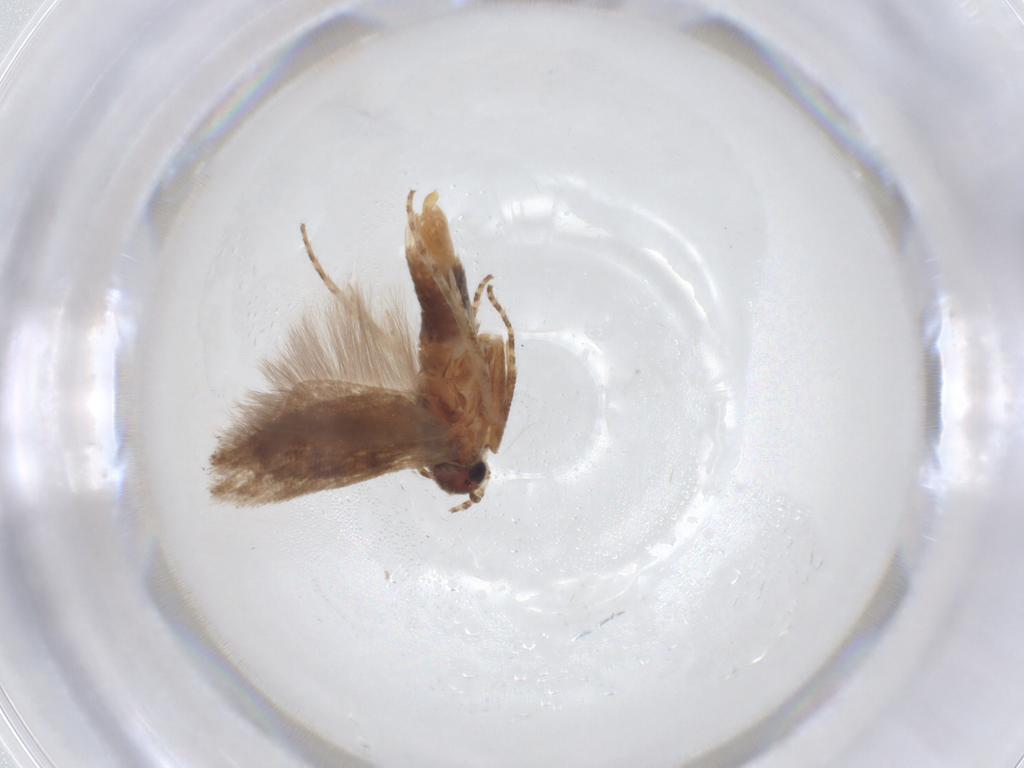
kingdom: Animalia
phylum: Arthropoda
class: Insecta
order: Lepidoptera
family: Gelechiidae
